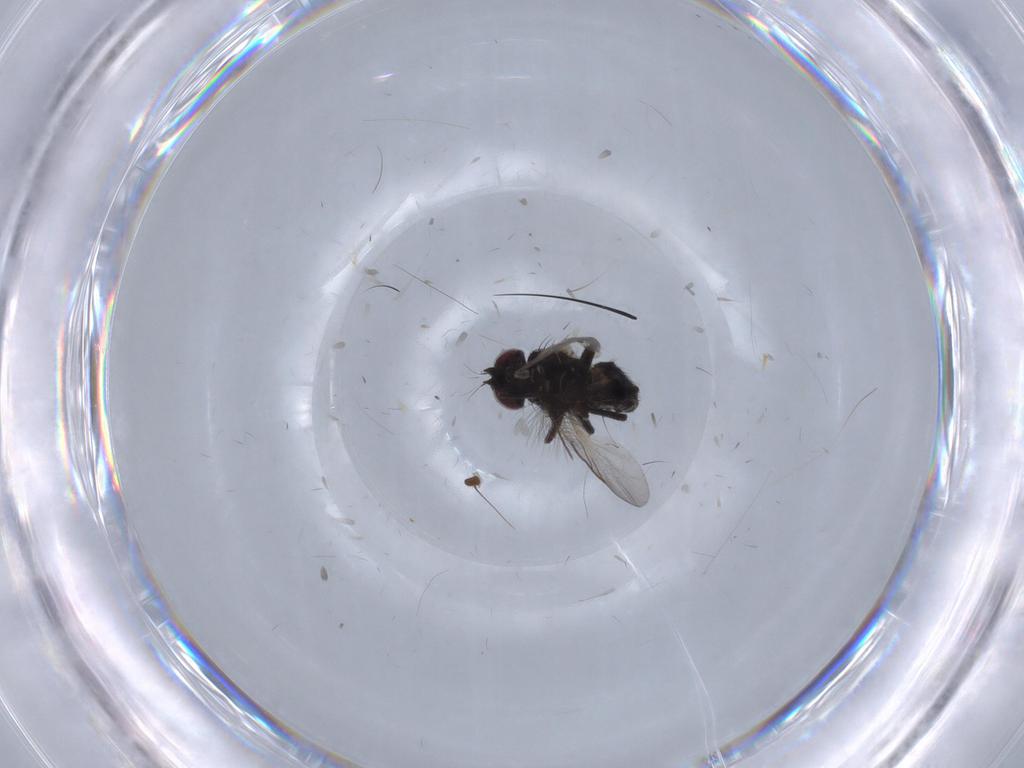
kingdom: Animalia
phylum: Arthropoda
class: Insecta
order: Diptera
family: Agromyzidae
